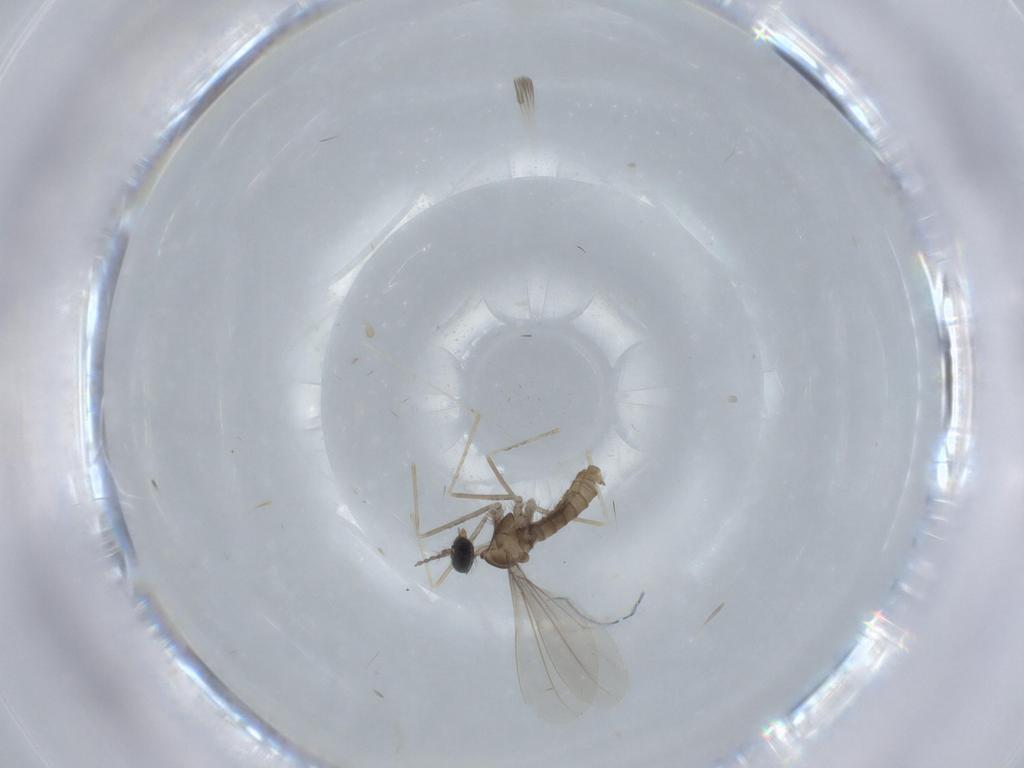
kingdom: Animalia
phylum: Arthropoda
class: Insecta
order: Diptera
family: Cecidomyiidae
